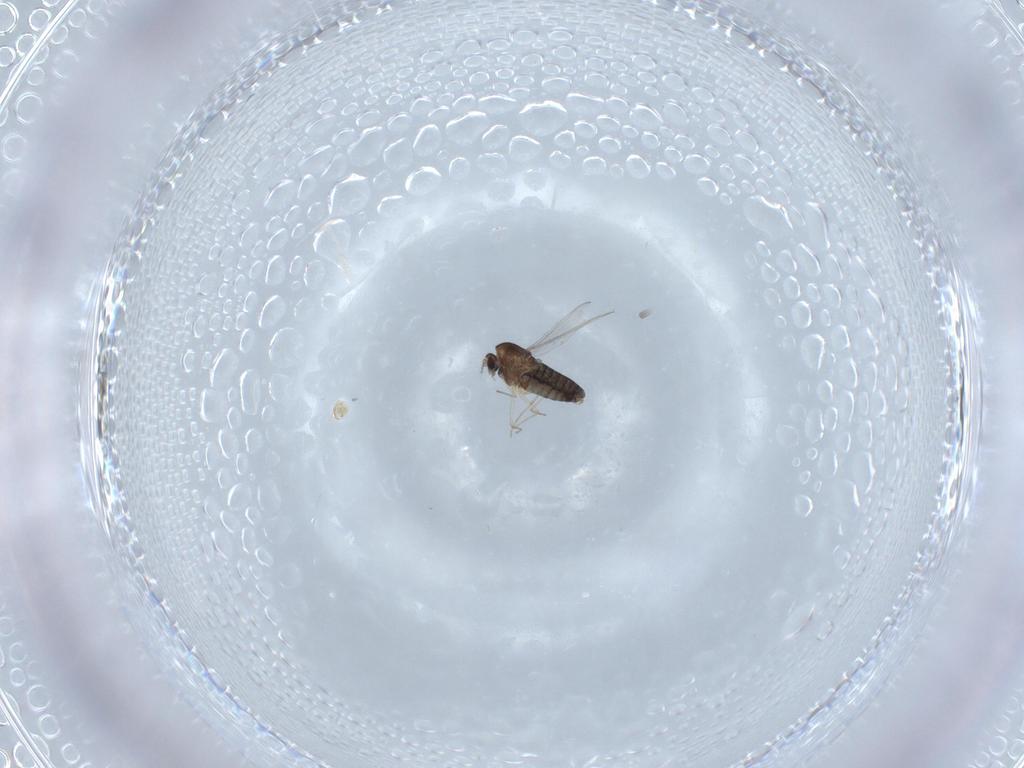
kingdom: Animalia
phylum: Arthropoda
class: Insecta
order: Diptera
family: Chironomidae
